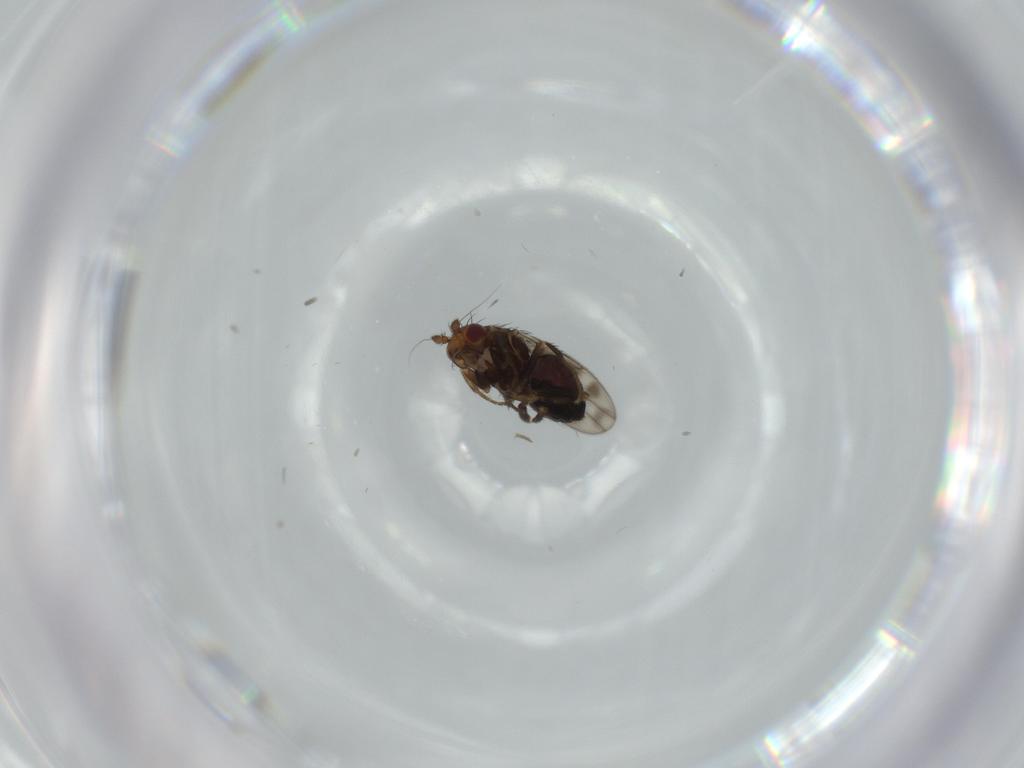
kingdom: Animalia
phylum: Arthropoda
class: Insecta
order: Diptera
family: Sphaeroceridae
